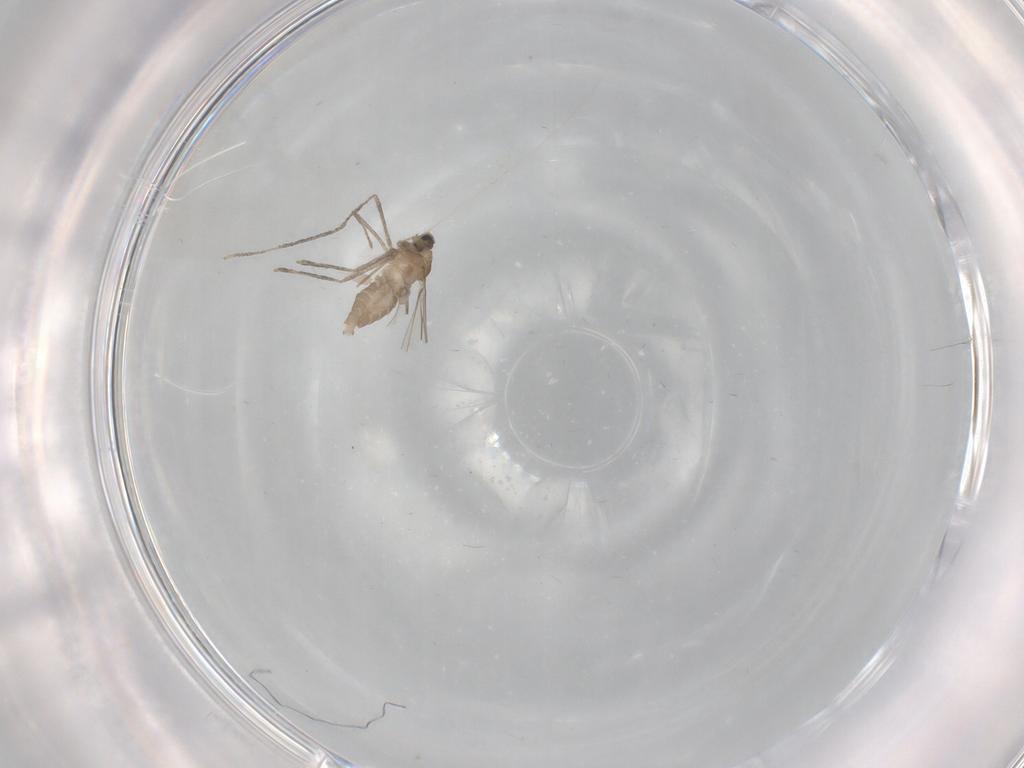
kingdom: Animalia
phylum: Arthropoda
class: Insecta
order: Diptera
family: Cecidomyiidae
